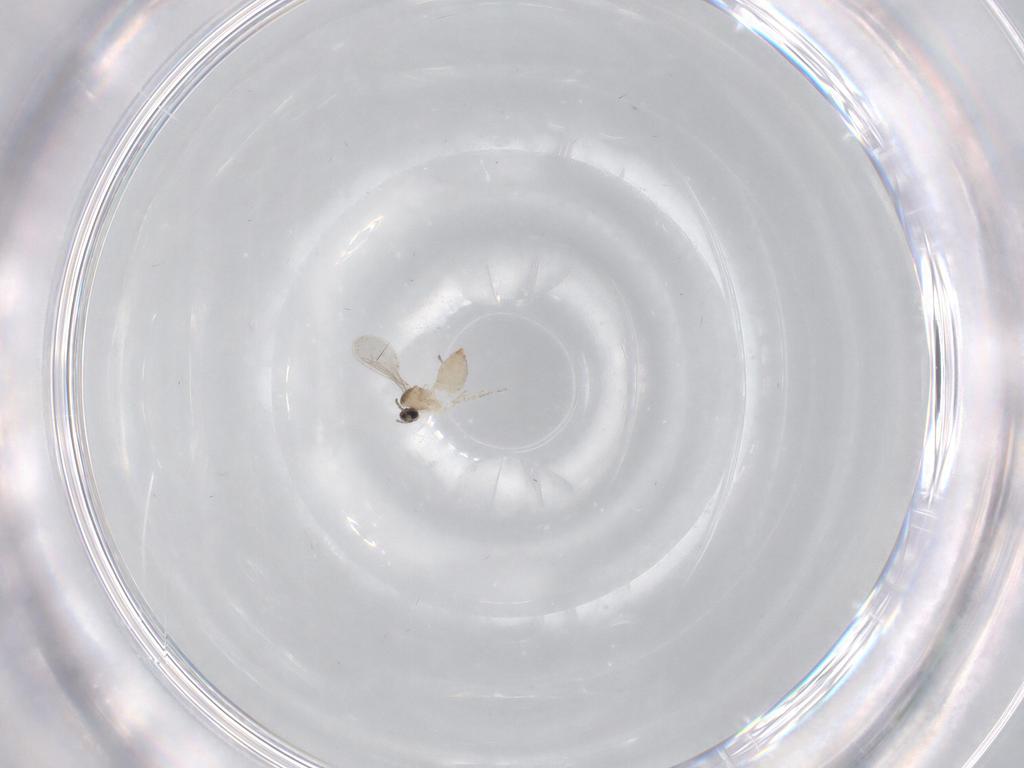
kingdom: Animalia
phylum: Arthropoda
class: Insecta
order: Diptera
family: Cecidomyiidae
